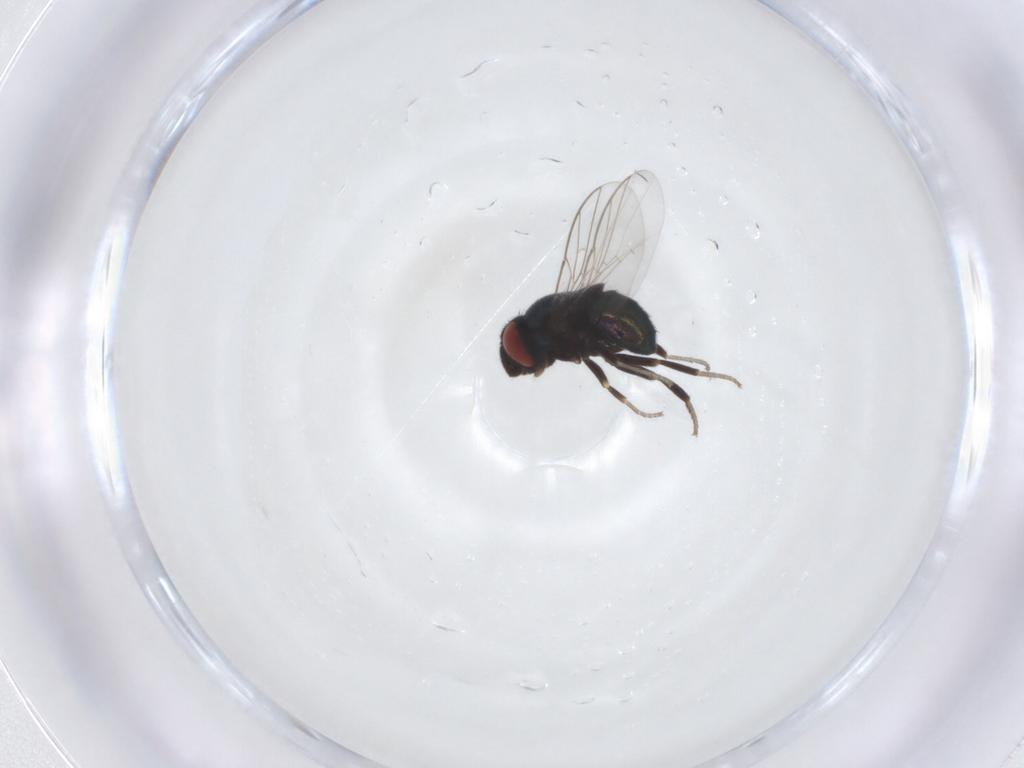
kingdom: Animalia
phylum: Arthropoda
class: Insecta
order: Diptera
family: Cryptochetidae
